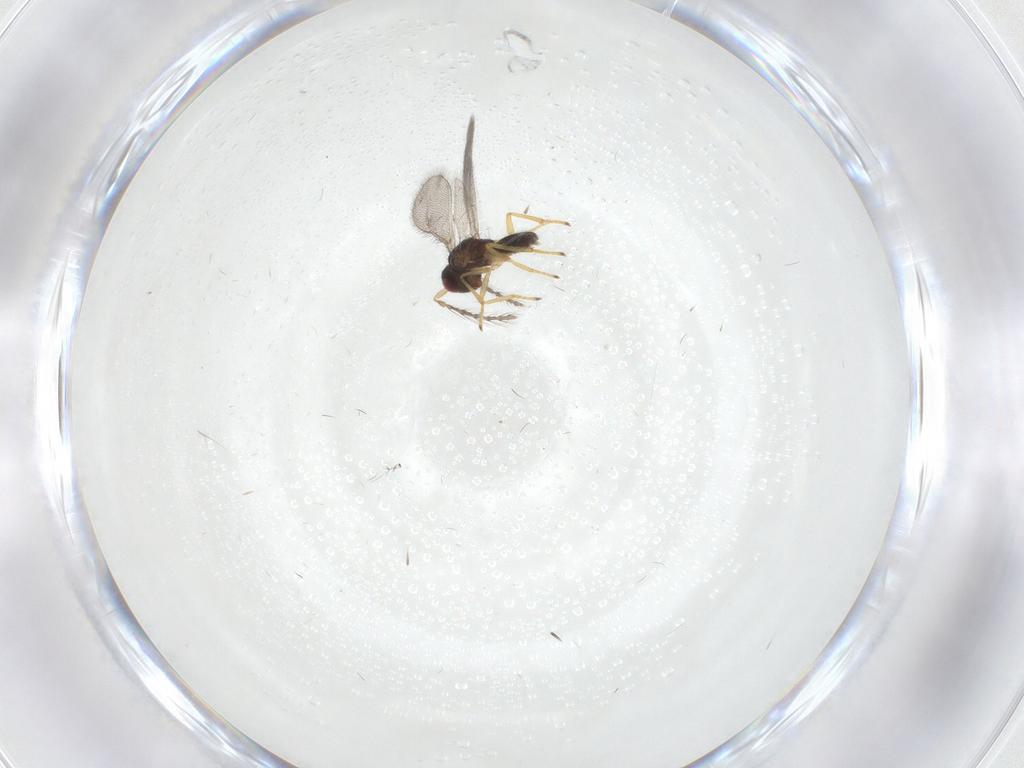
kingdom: Animalia
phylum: Arthropoda
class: Insecta
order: Hymenoptera
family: Eulophidae
